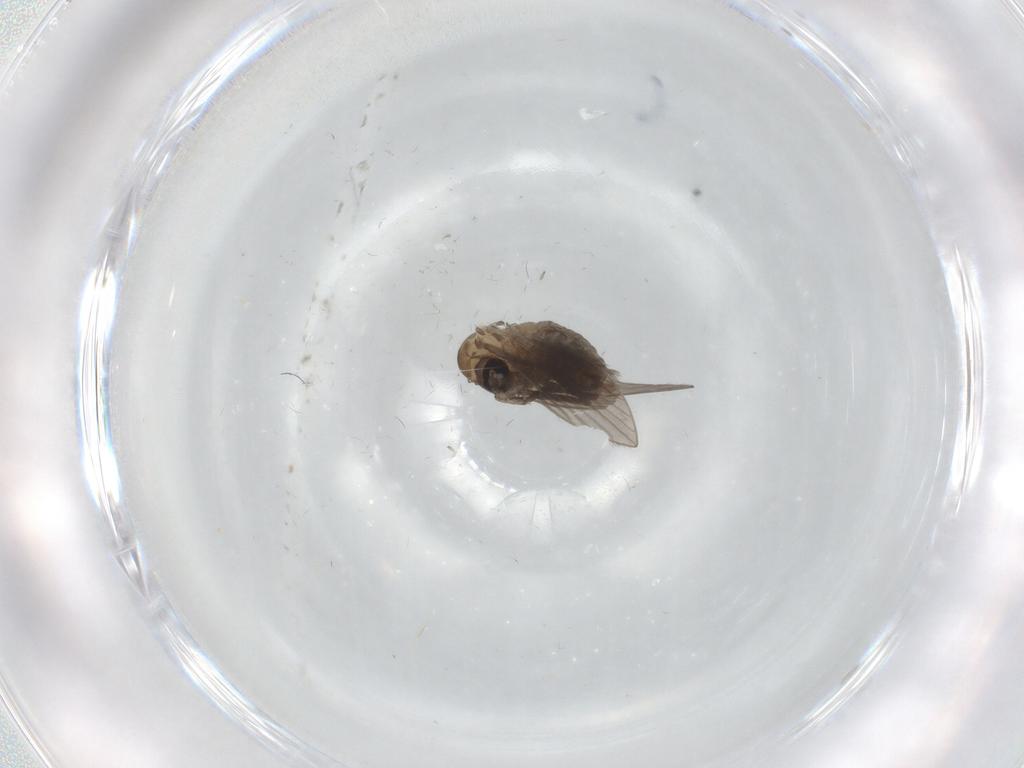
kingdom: Animalia
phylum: Arthropoda
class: Insecta
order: Diptera
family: Psychodidae
